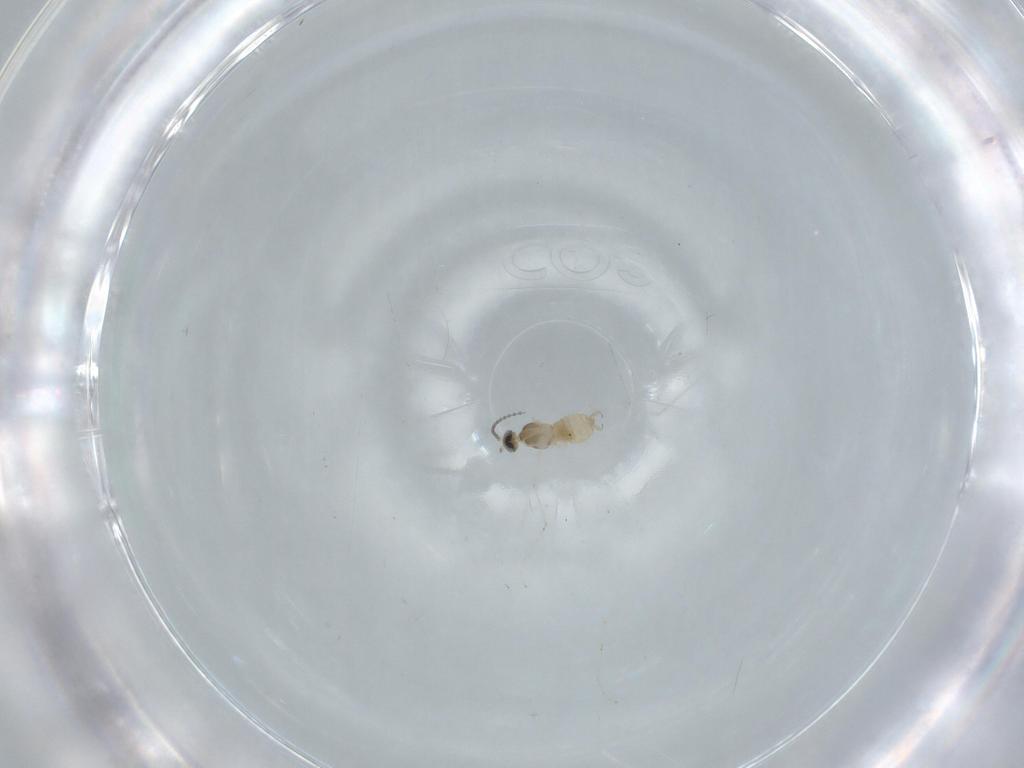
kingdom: Animalia
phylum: Arthropoda
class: Insecta
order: Diptera
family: Cecidomyiidae
